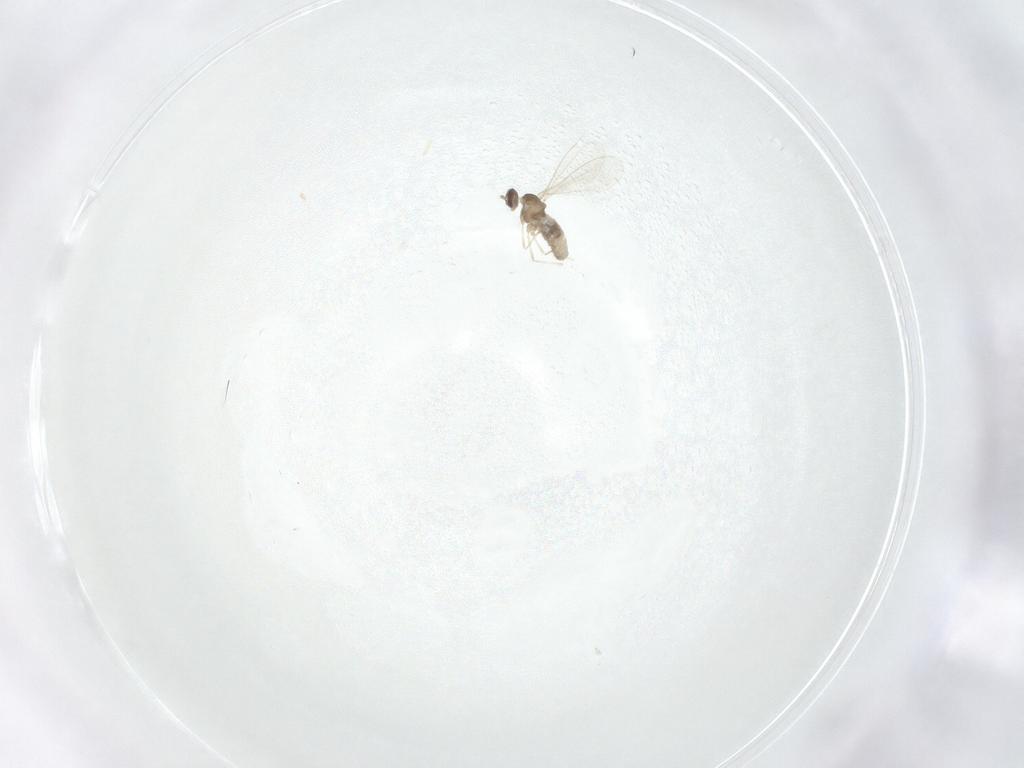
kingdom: Animalia
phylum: Arthropoda
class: Insecta
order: Diptera
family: Cecidomyiidae
